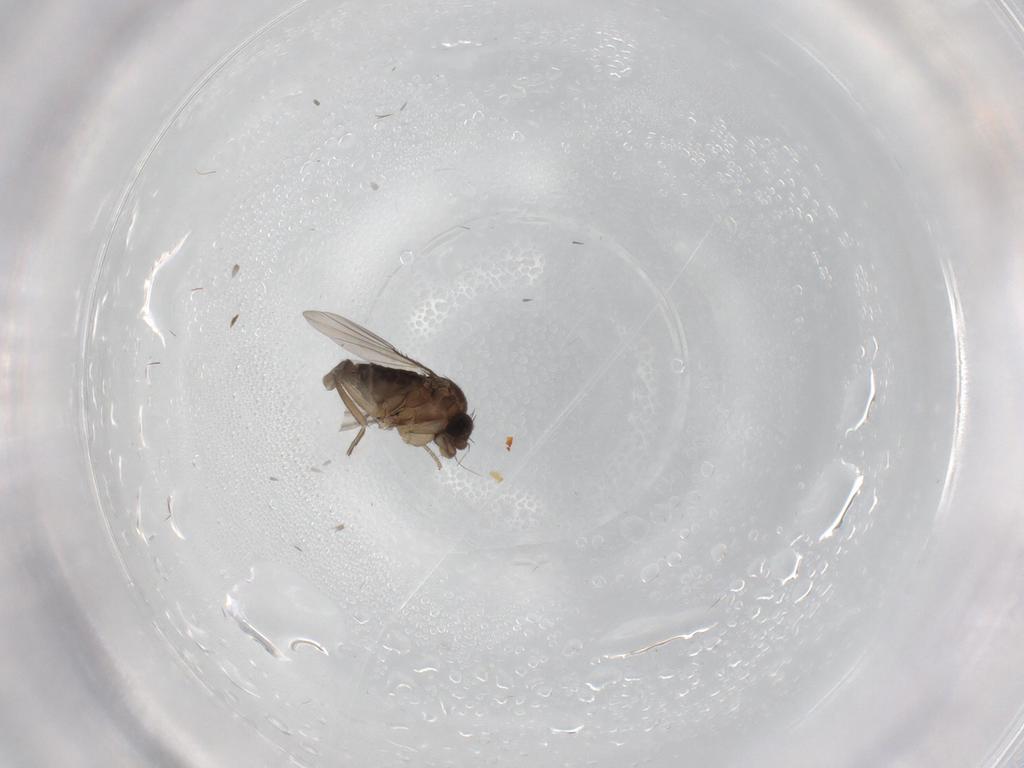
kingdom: Animalia
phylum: Arthropoda
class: Insecta
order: Diptera
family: Phoridae
